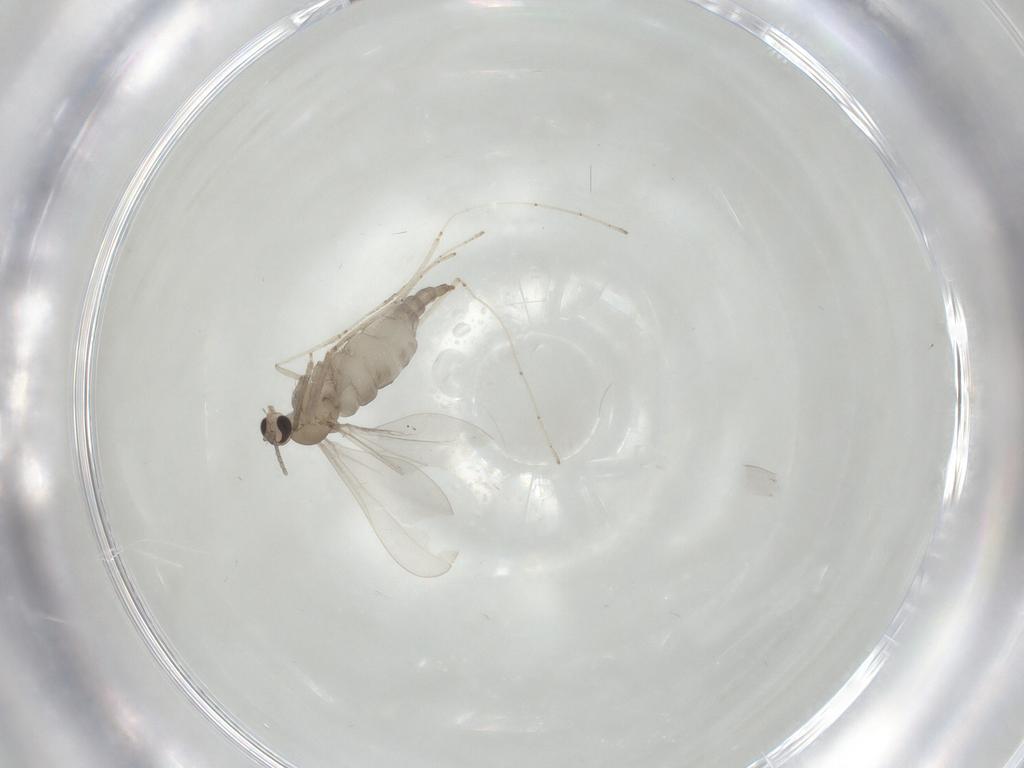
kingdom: Animalia
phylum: Arthropoda
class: Insecta
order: Diptera
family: Cecidomyiidae
